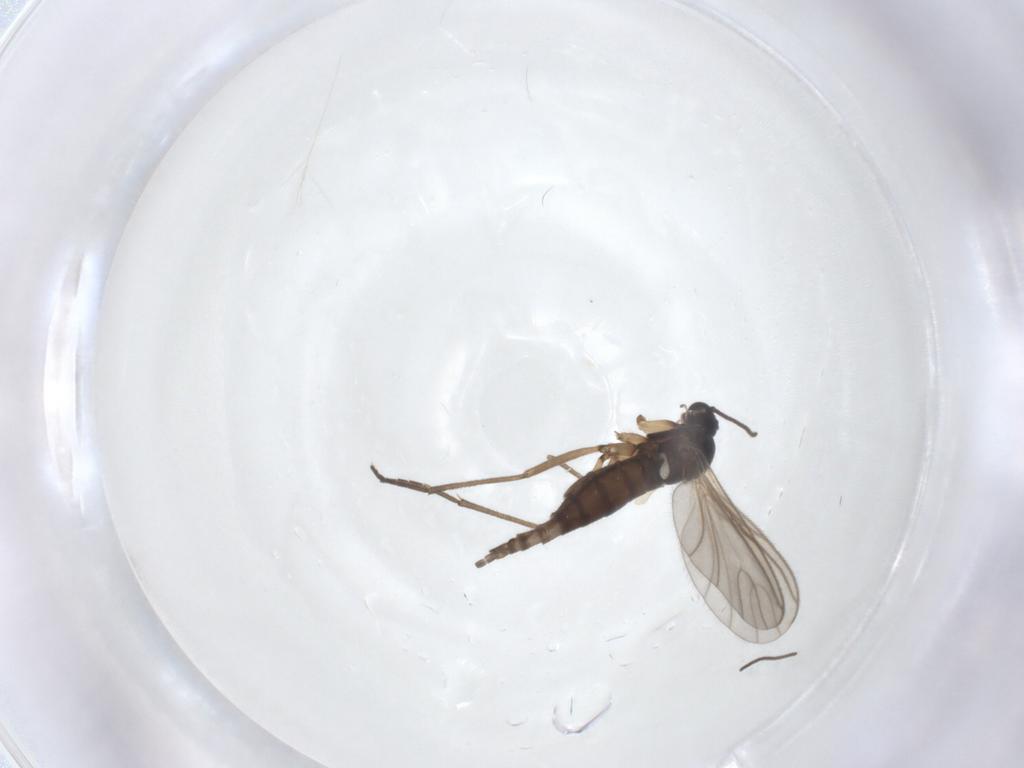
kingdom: Animalia
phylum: Arthropoda
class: Insecta
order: Diptera
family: Sciaridae
